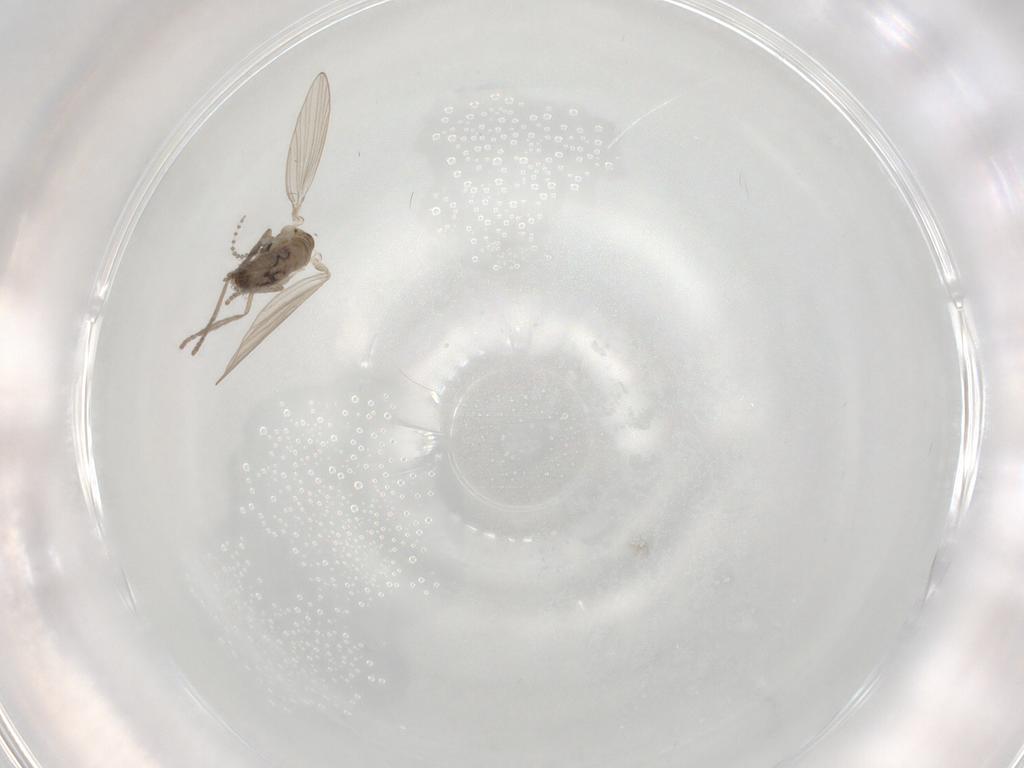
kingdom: Animalia
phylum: Arthropoda
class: Insecta
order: Diptera
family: Psychodidae
